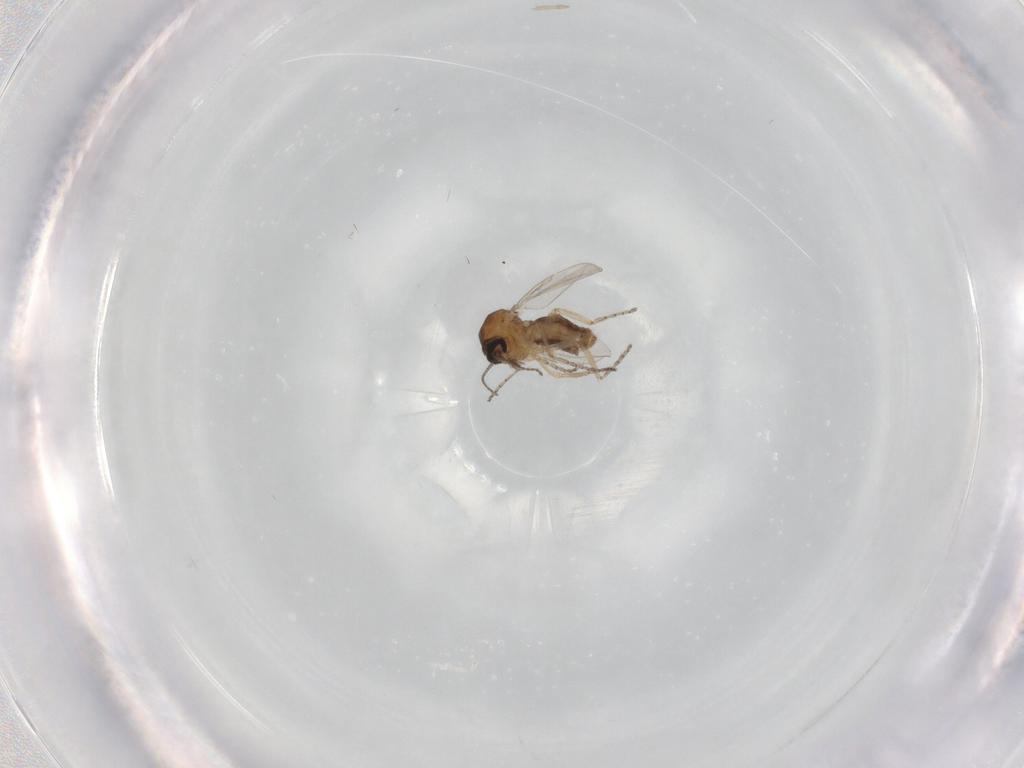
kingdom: Animalia
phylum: Arthropoda
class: Insecta
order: Diptera
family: Ceratopogonidae
